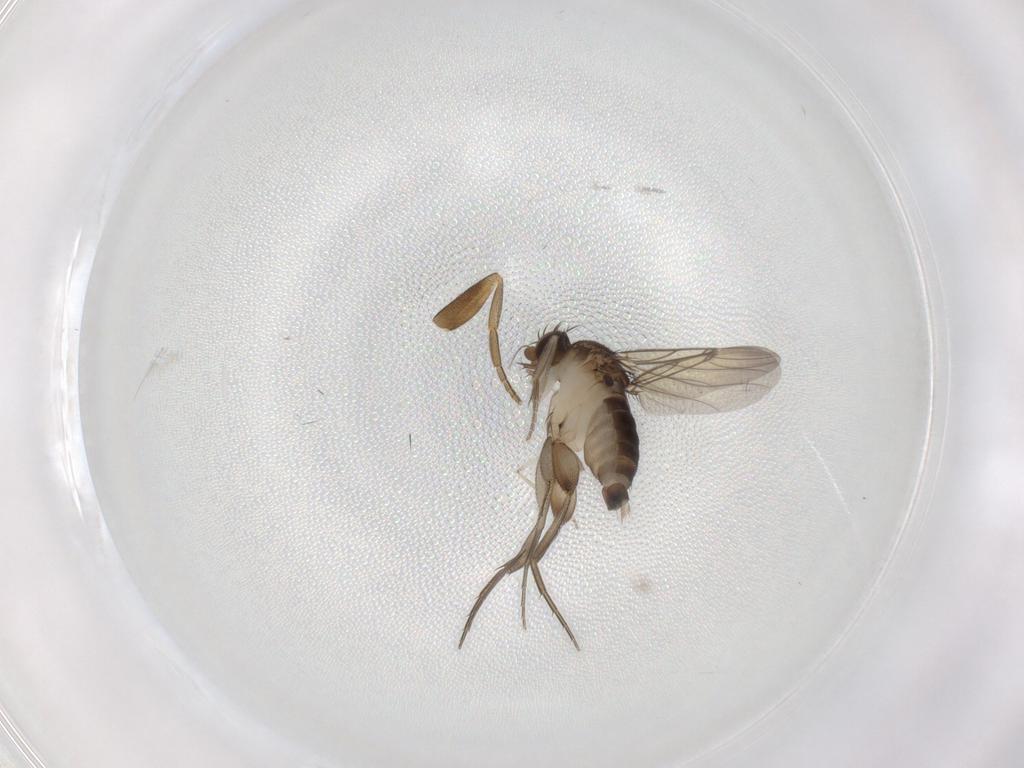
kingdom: Animalia
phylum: Arthropoda
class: Insecta
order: Diptera
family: Phoridae
